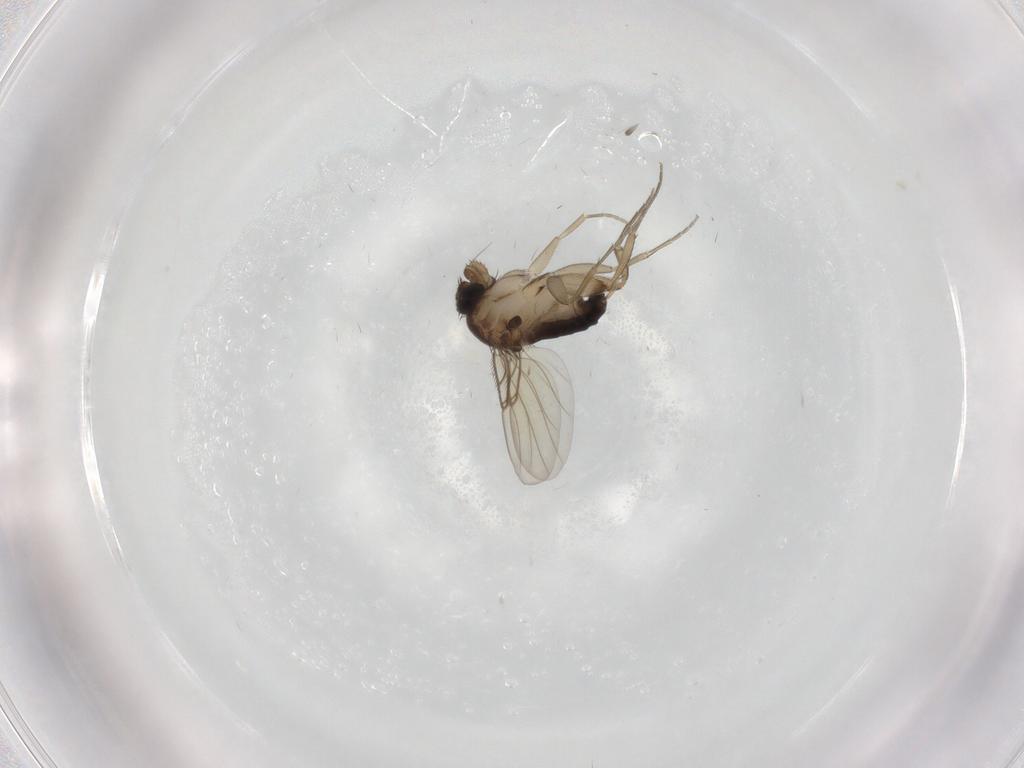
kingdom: Animalia
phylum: Arthropoda
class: Insecta
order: Diptera
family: Phoridae
